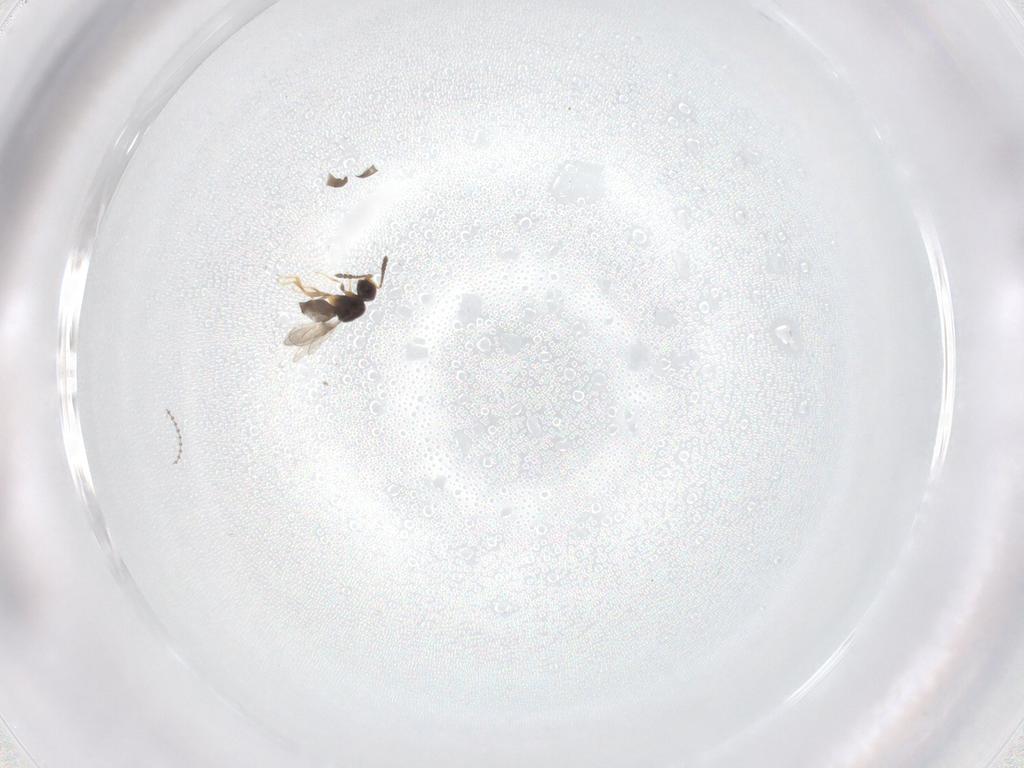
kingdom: Animalia
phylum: Arthropoda
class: Insecta
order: Hymenoptera
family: Ceraphronidae
